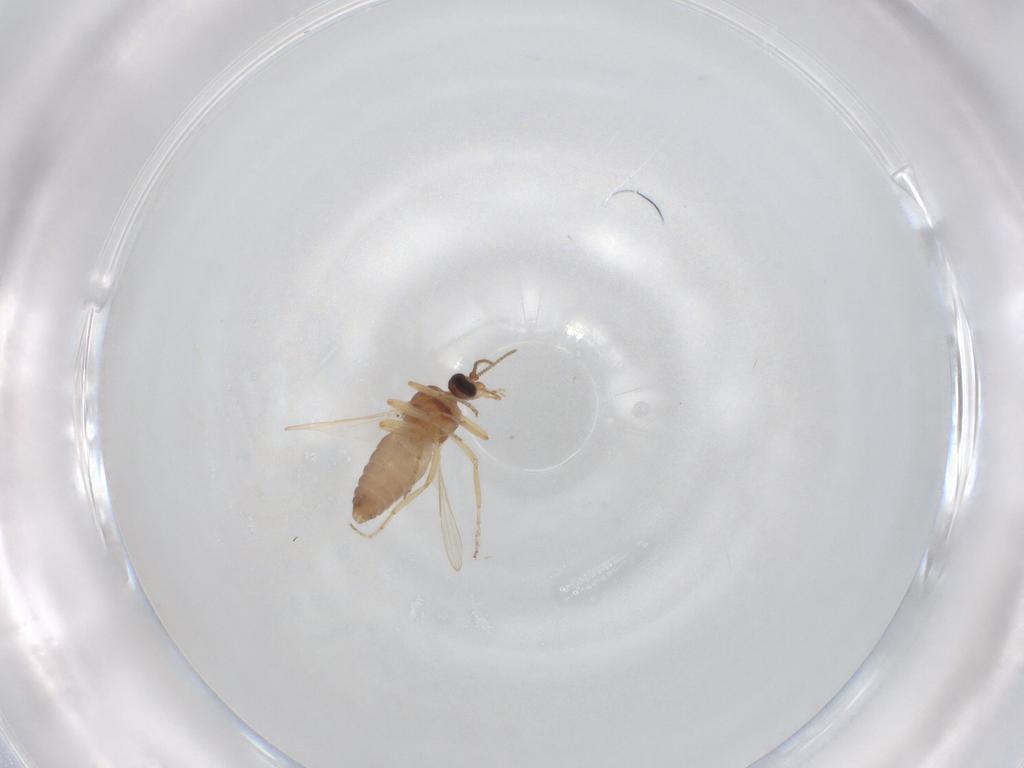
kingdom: Animalia
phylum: Arthropoda
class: Insecta
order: Diptera
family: Ceratopogonidae
